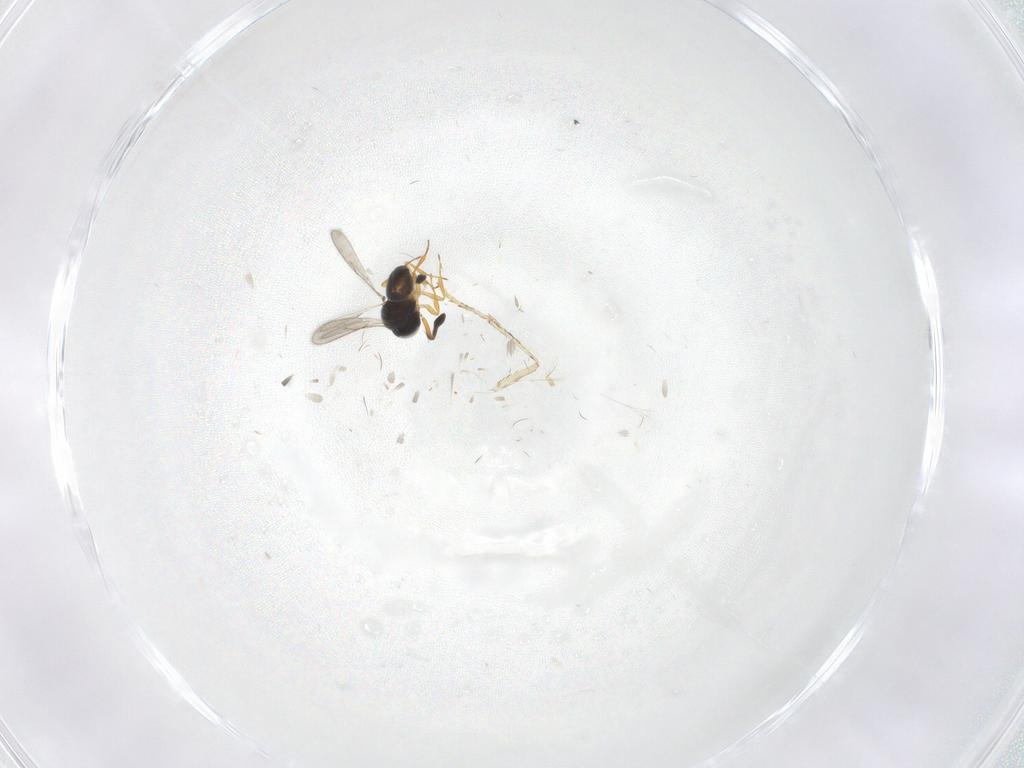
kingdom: Animalia
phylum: Arthropoda
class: Insecta
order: Hymenoptera
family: Scelionidae
